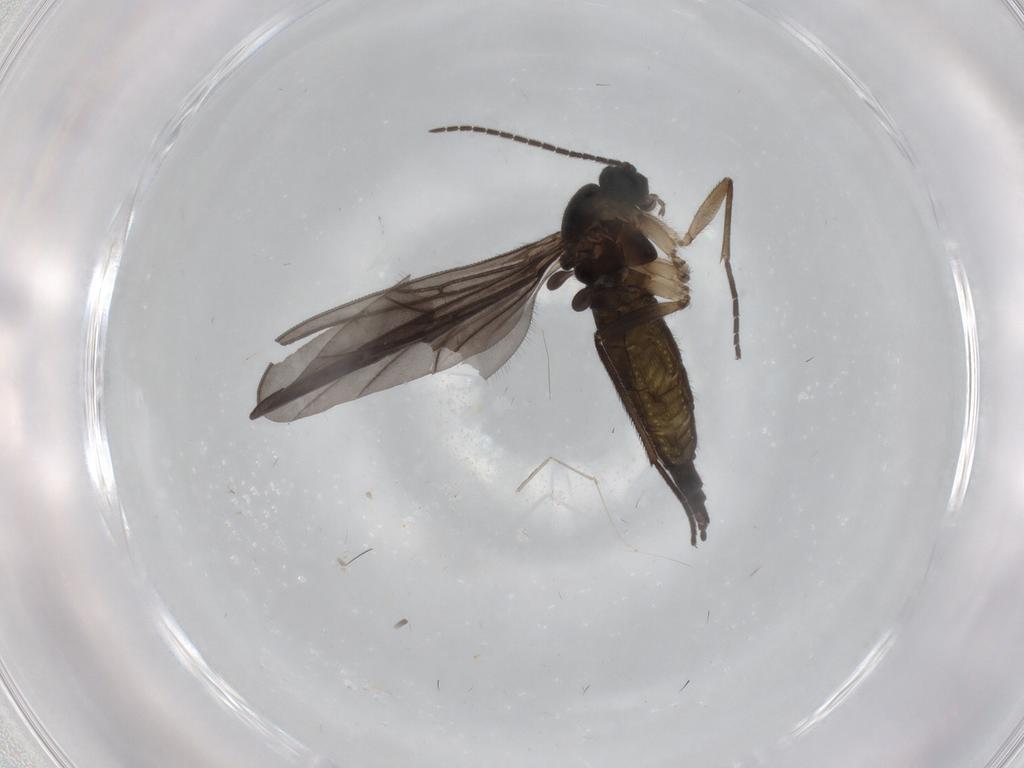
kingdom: Animalia
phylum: Arthropoda
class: Insecta
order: Diptera
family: Sciaridae
